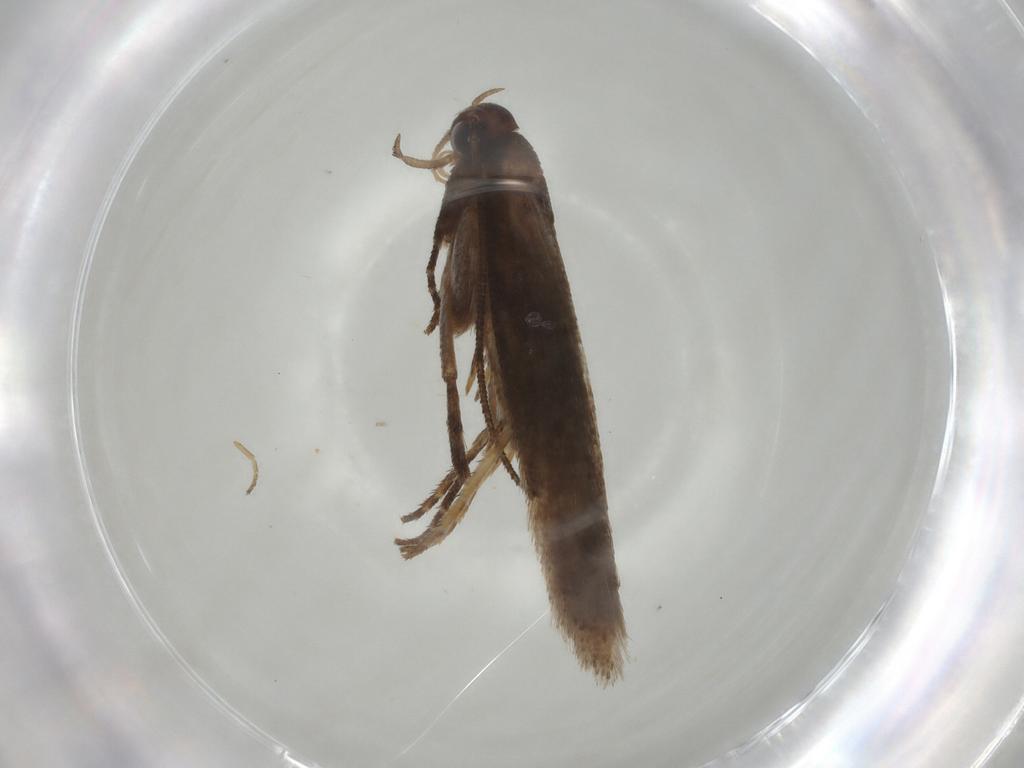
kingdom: Animalia
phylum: Arthropoda
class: Insecta
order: Lepidoptera
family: Gelechiidae
